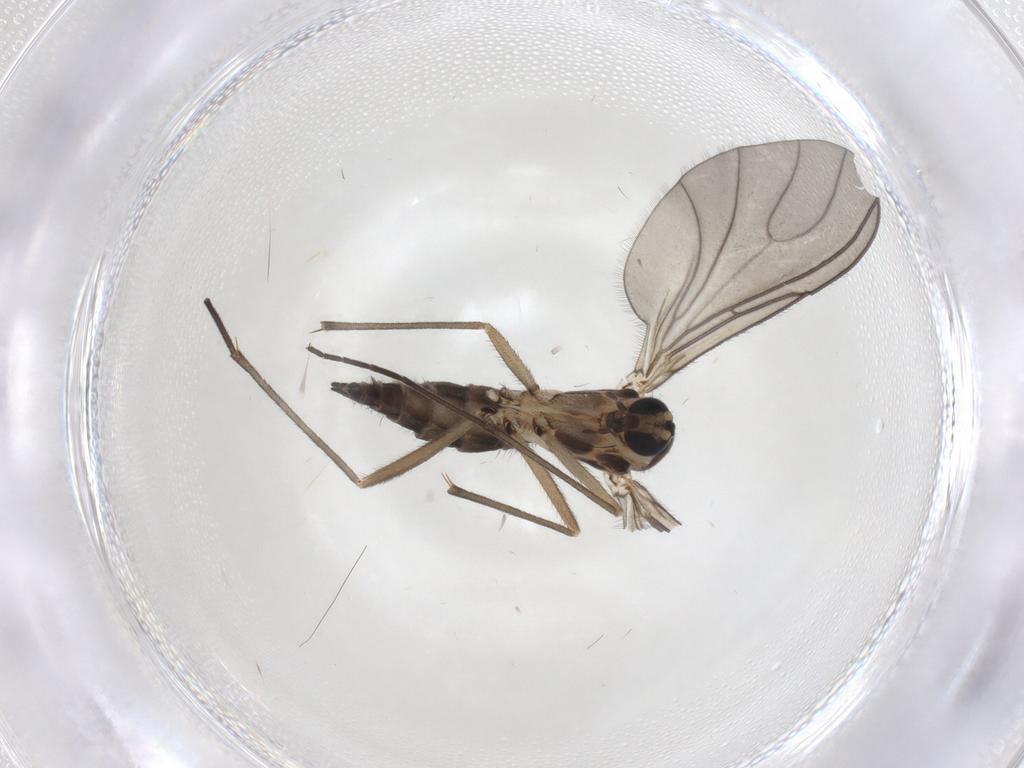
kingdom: Animalia
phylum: Arthropoda
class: Insecta
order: Diptera
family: Sciaridae
